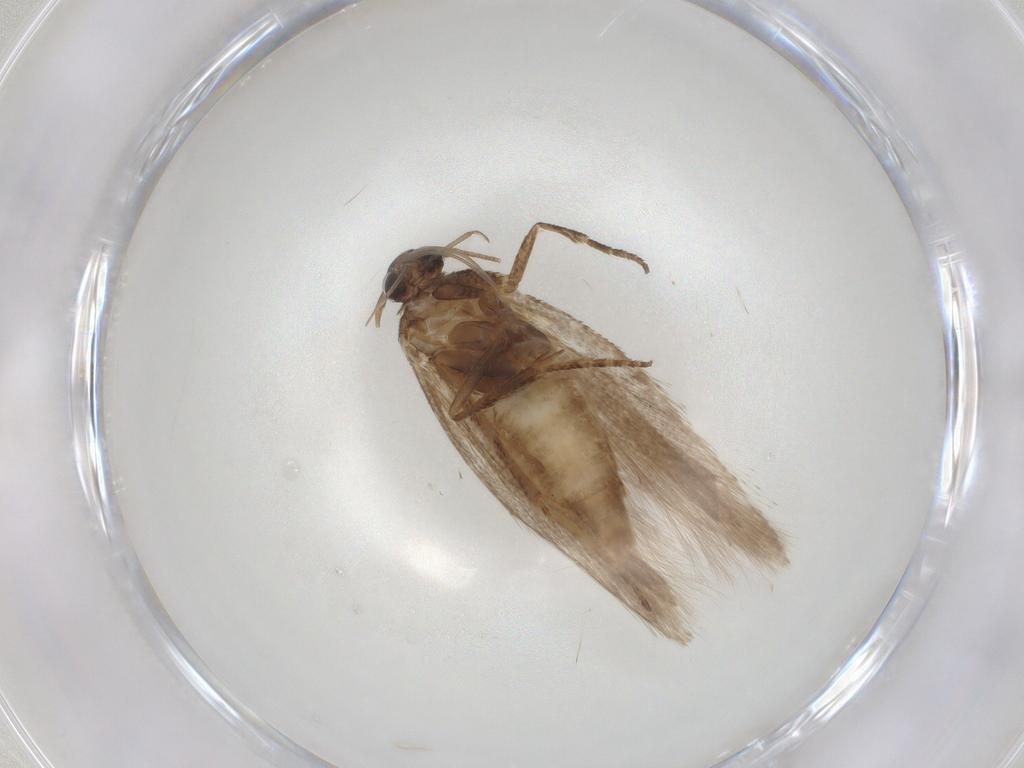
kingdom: Animalia
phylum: Arthropoda
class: Insecta
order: Lepidoptera
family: Gelechiidae
